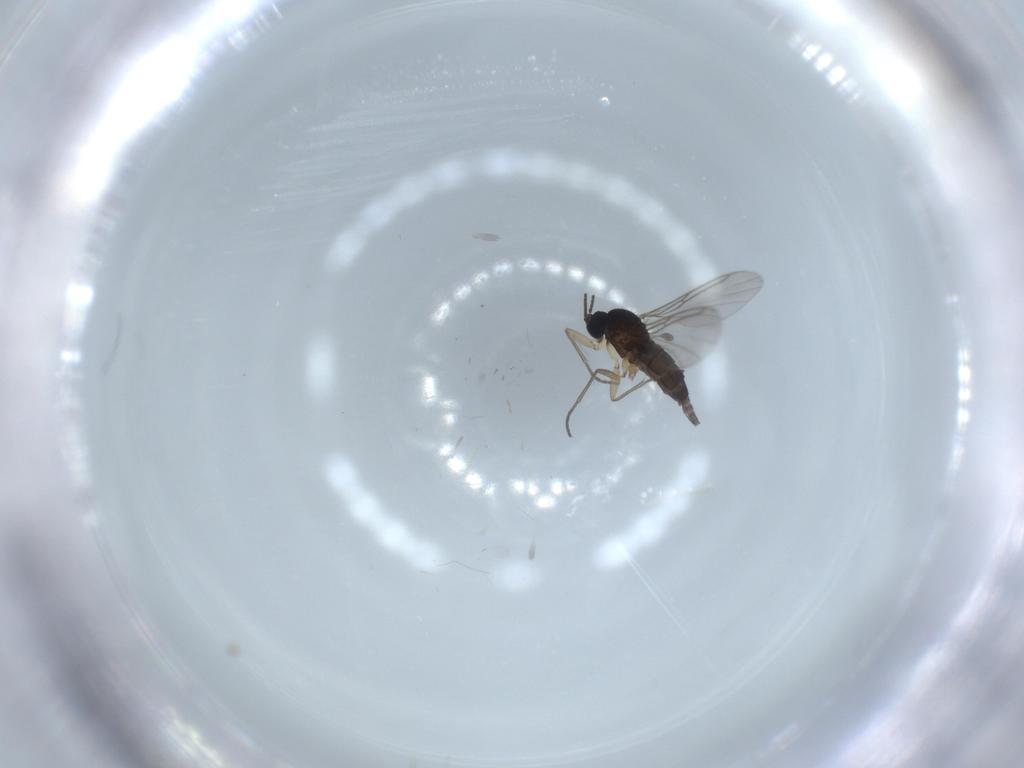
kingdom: Animalia
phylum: Arthropoda
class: Insecta
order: Diptera
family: Sciaridae
